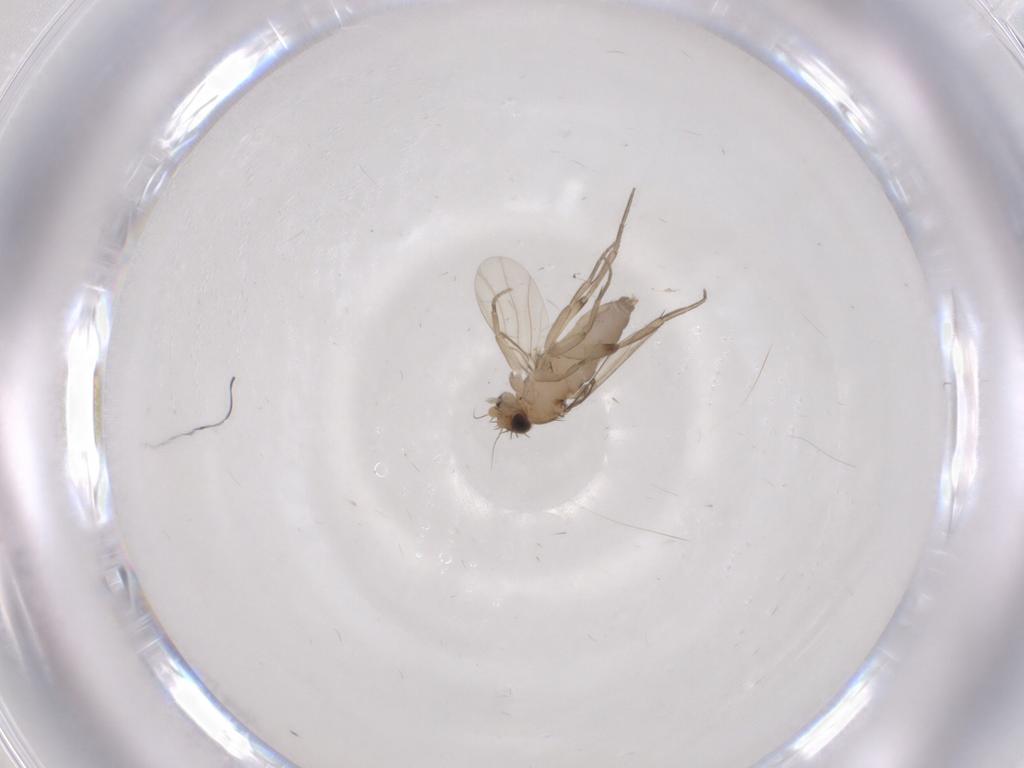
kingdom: Animalia
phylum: Arthropoda
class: Insecta
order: Diptera
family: Phoridae
